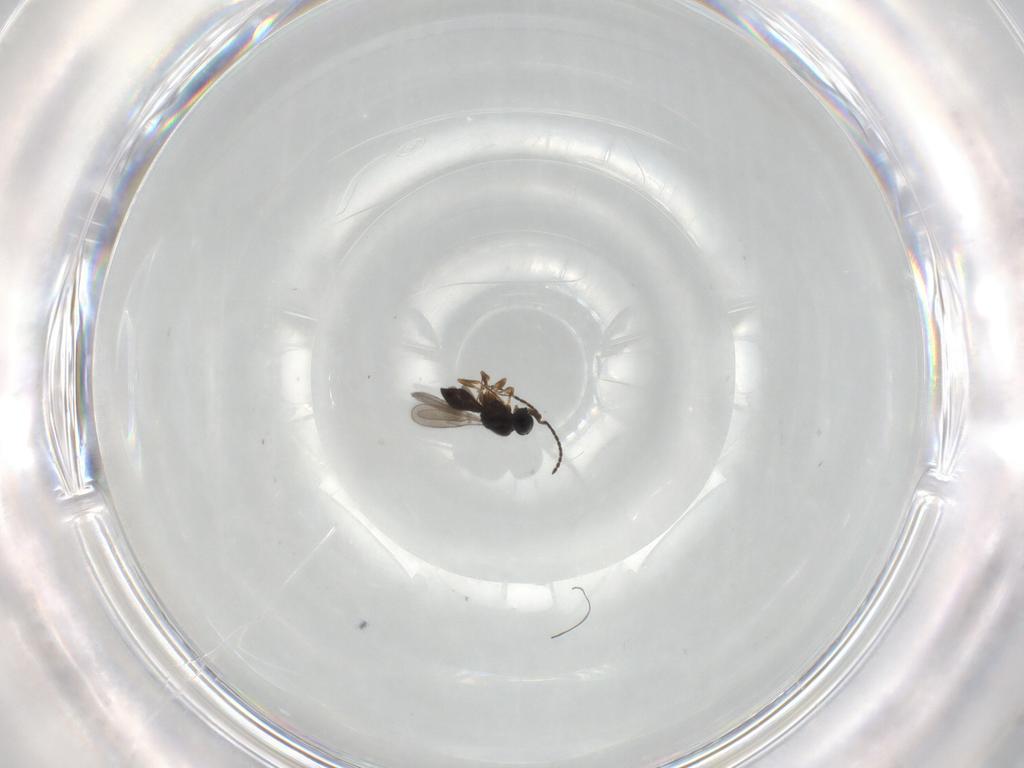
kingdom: Animalia
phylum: Arthropoda
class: Insecta
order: Hymenoptera
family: Scelionidae
